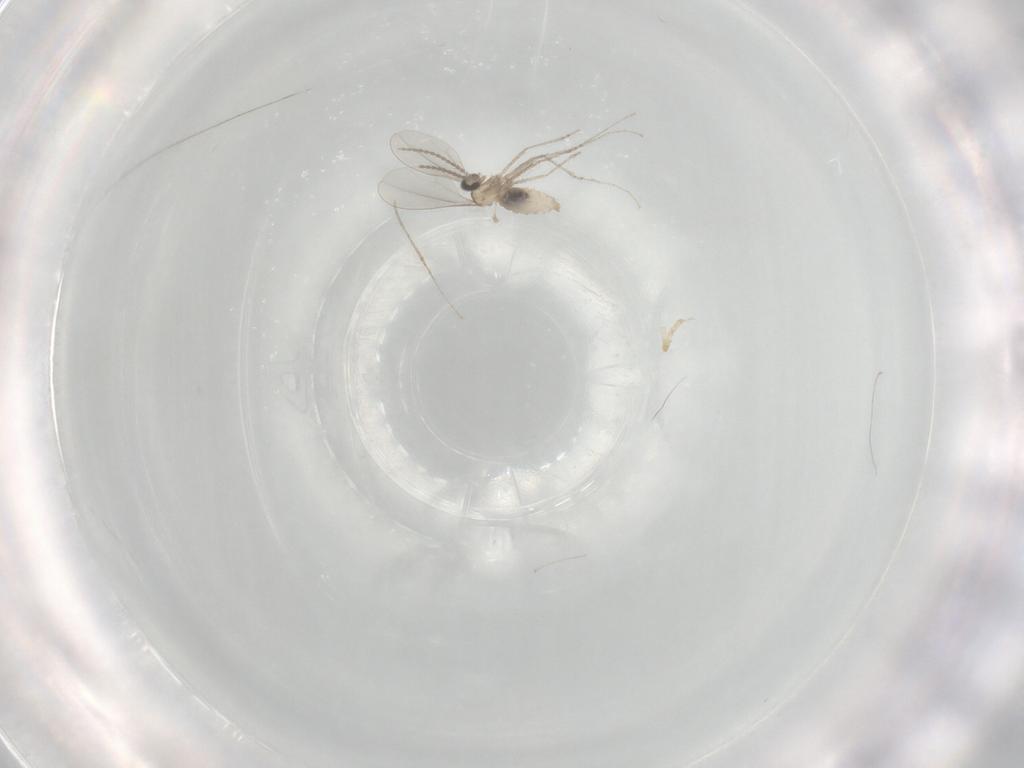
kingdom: Animalia
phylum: Arthropoda
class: Insecta
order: Diptera
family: Cecidomyiidae
